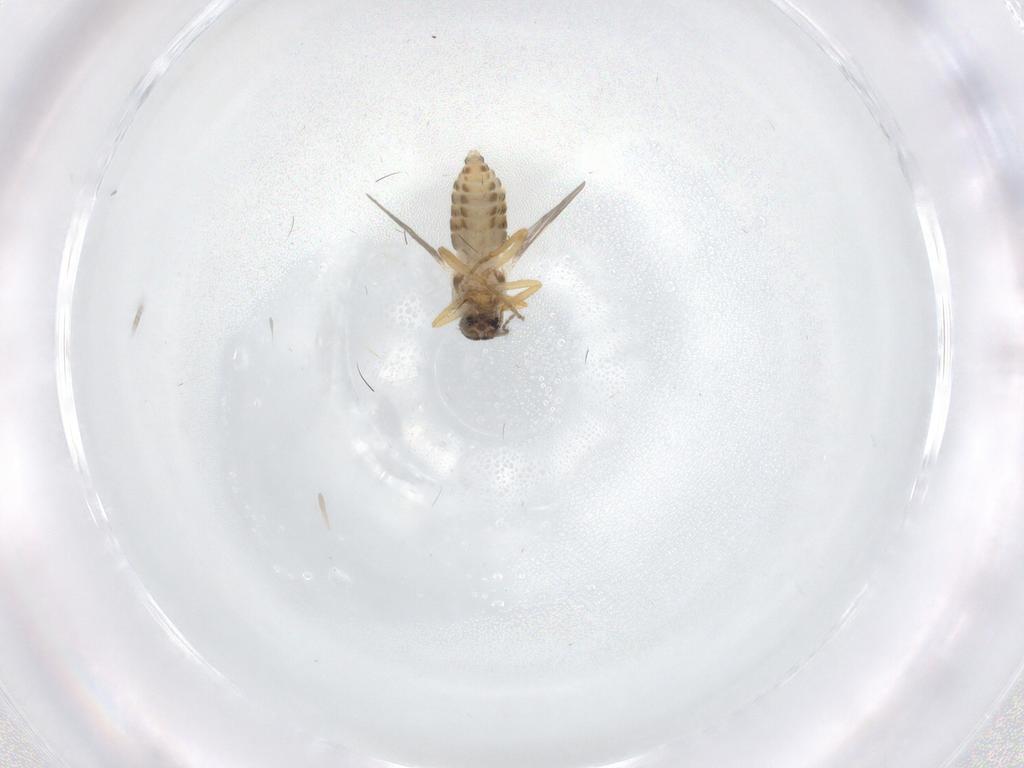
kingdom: Animalia
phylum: Arthropoda
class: Insecta
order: Diptera
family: Ceratopogonidae
